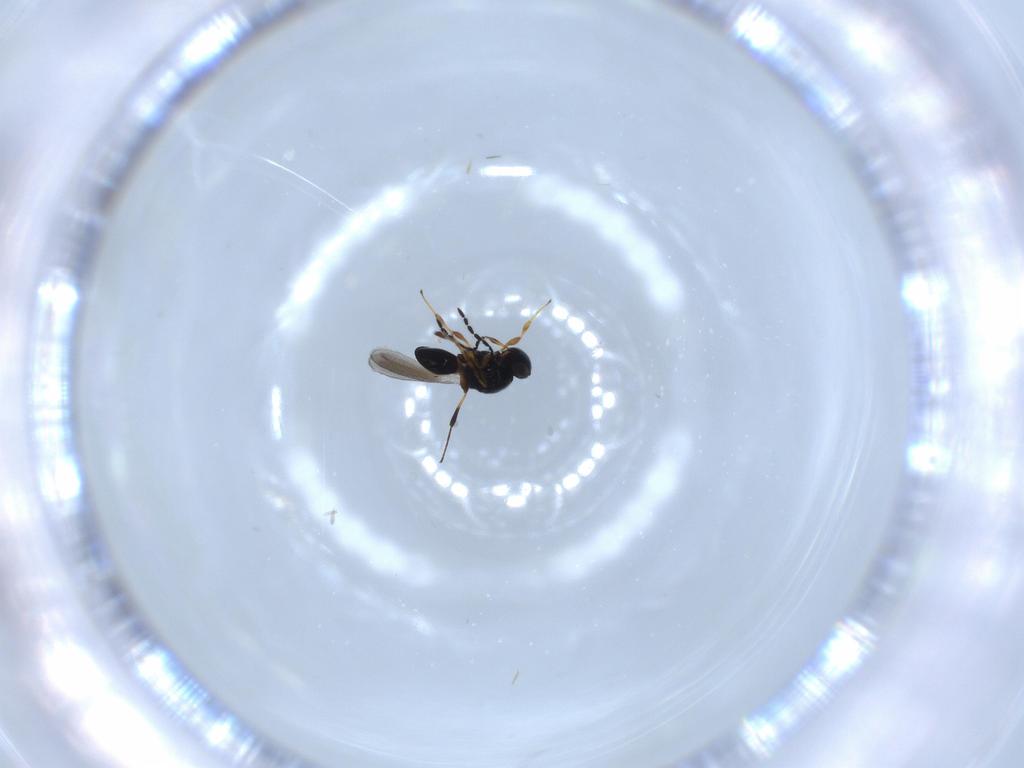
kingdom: Animalia
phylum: Arthropoda
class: Insecta
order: Hymenoptera
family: Platygastridae
